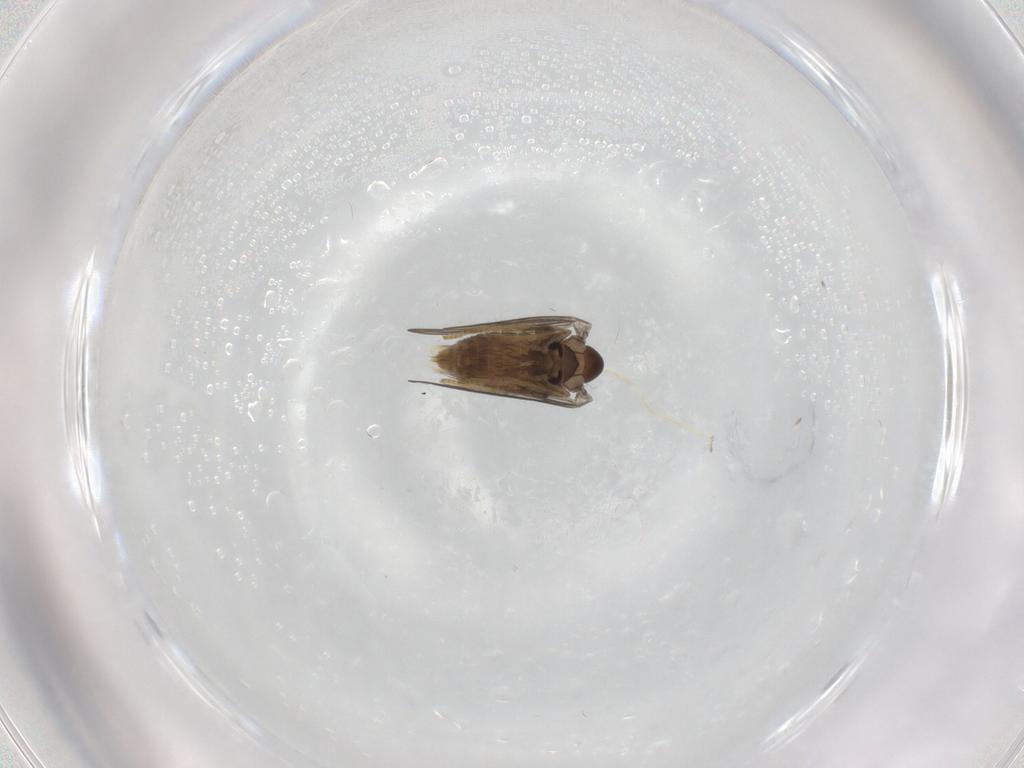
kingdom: Animalia
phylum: Arthropoda
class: Insecta
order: Diptera
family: Psychodidae
